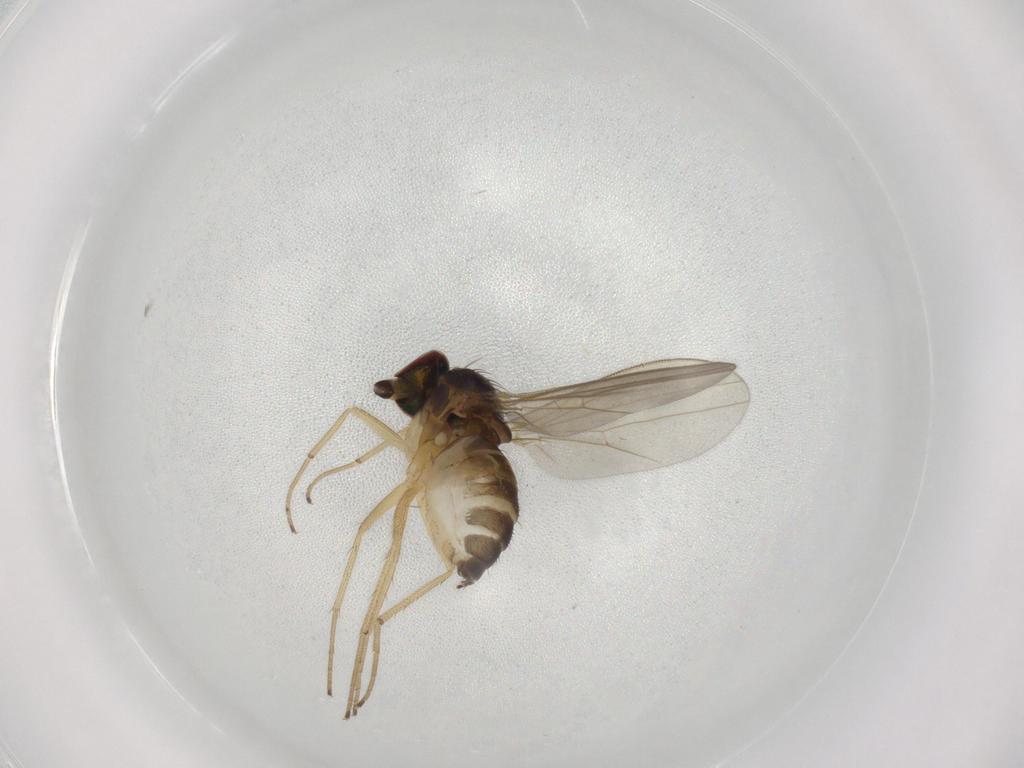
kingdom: Animalia
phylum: Arthropoda
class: Insecta
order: Diptera
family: Dolichopodidae
